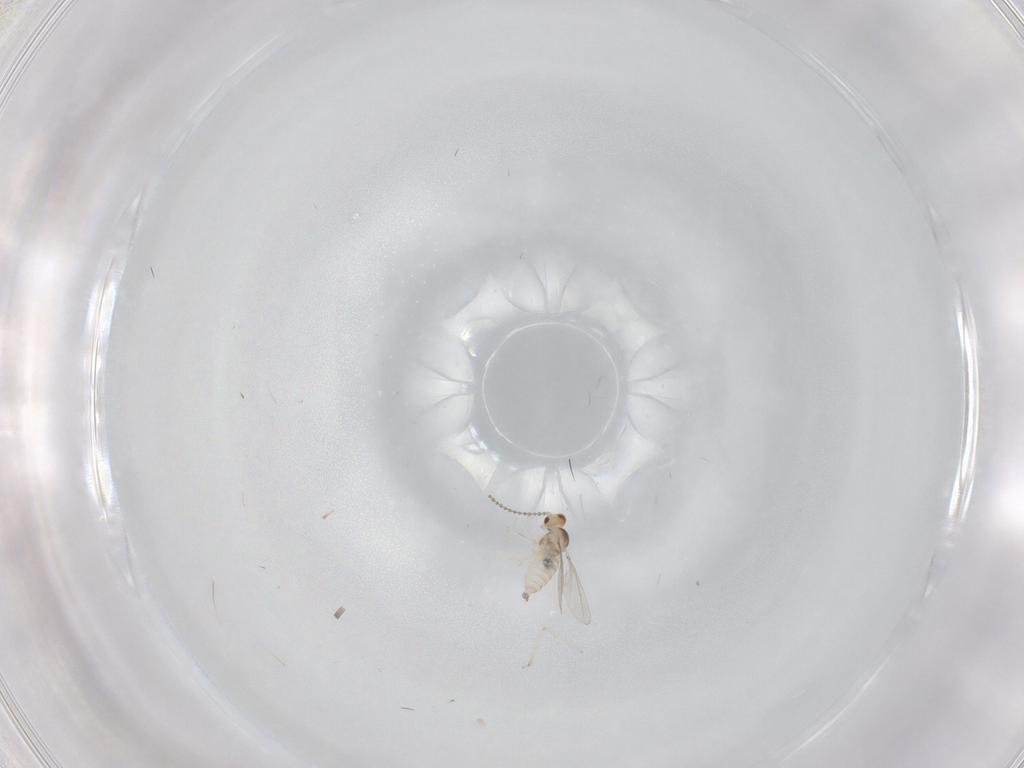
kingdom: Animalia
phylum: Arthropoda
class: Insecta
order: Diptera
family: Cecidomyiidae
